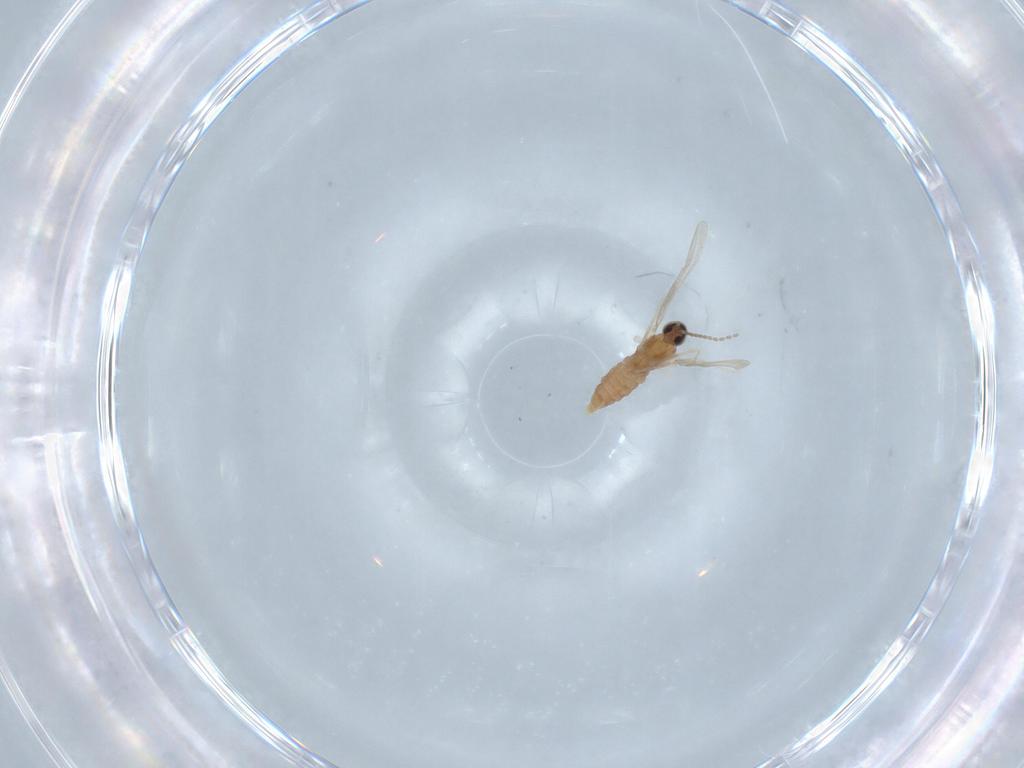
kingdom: Animalia
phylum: Arthropoda
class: Insecta
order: Diptera
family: Cecidomyiidae
